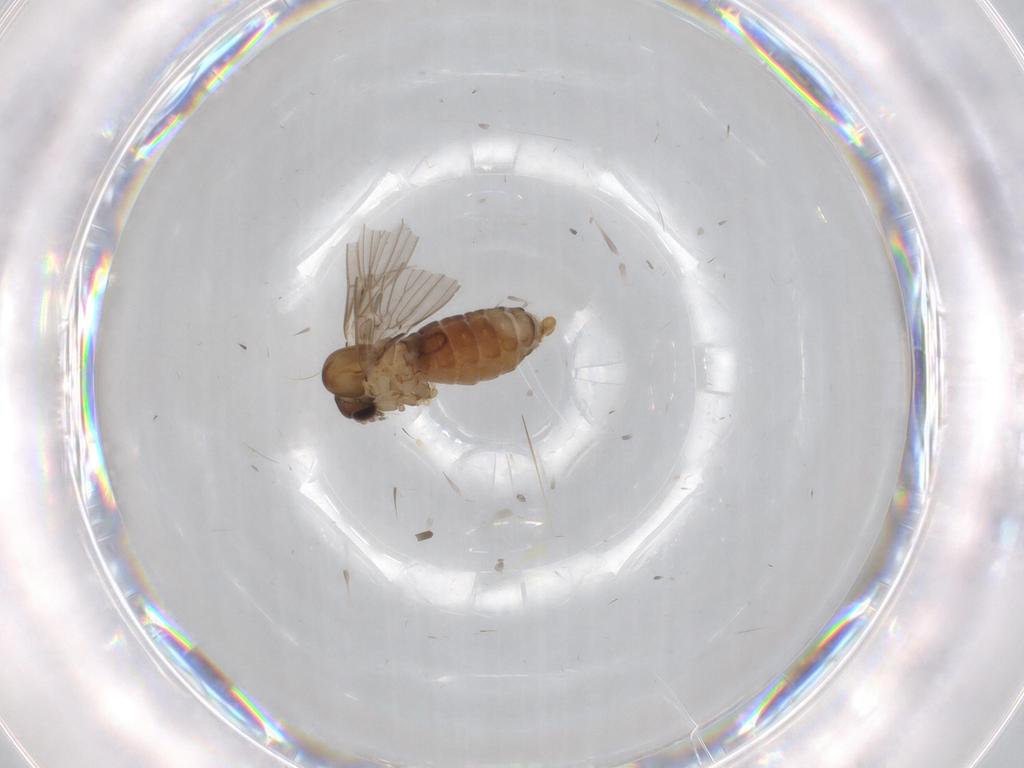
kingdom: Animalia
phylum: Arthropoda
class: Insecta
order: Diptera
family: Psychodidae
